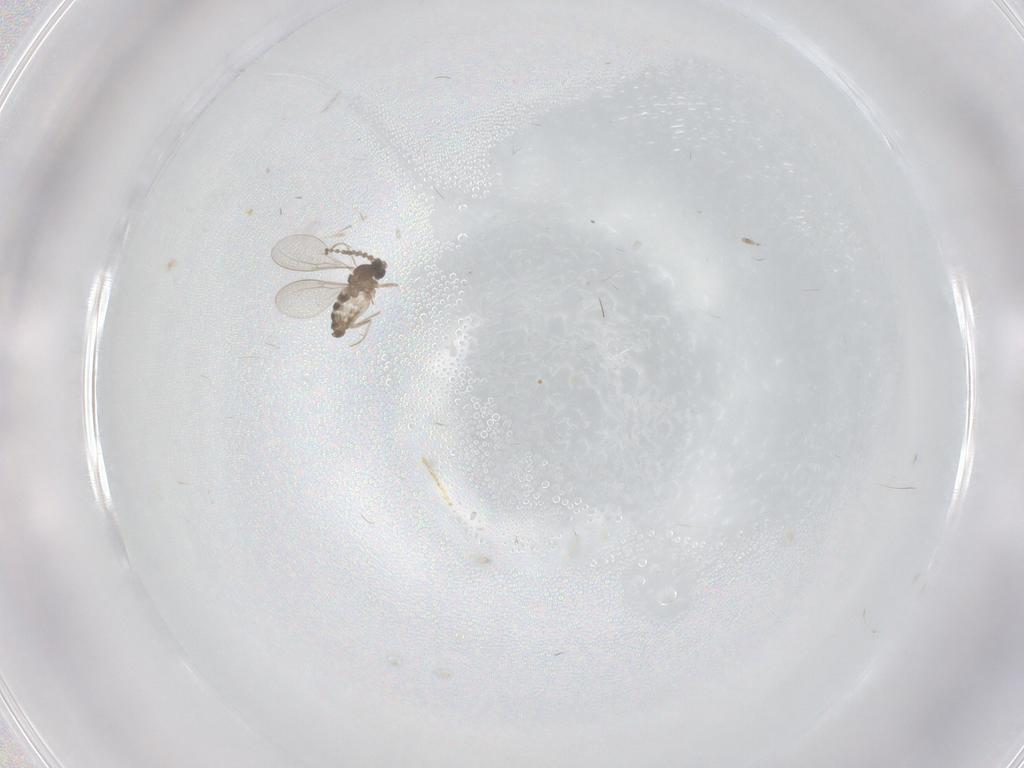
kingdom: Animalia
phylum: Arthropoda
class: Insecta
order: Diptera
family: Cecidomyiidae
